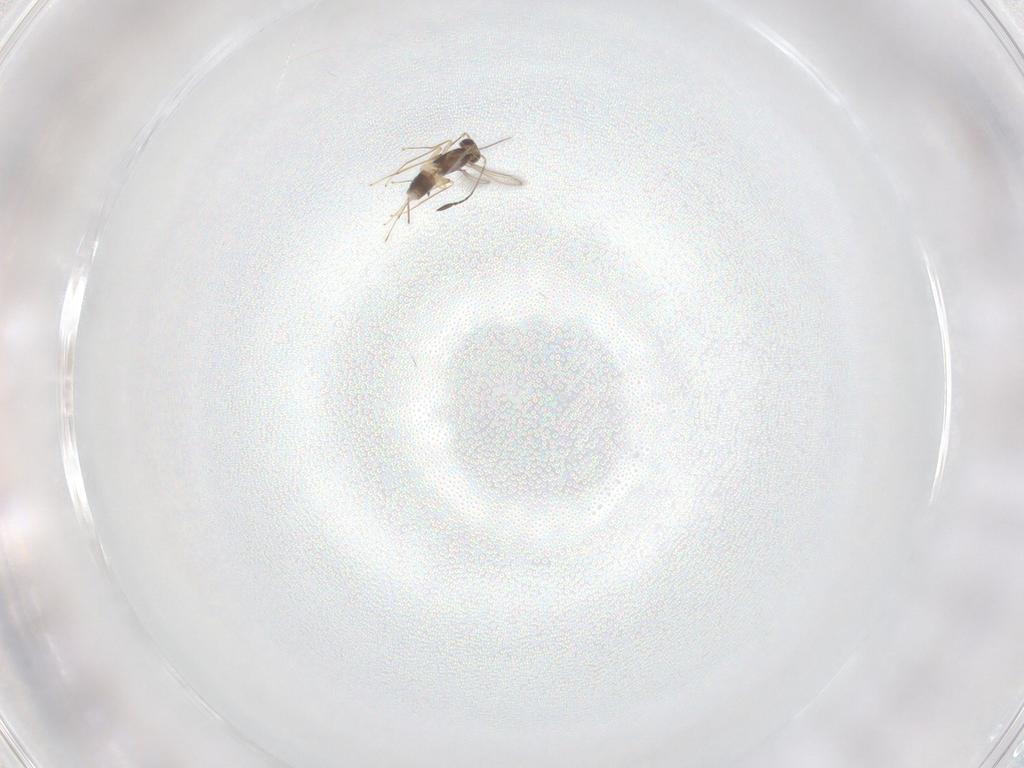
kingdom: Animalia
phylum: Arthropoda
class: Insecta
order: Hymenoptera
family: Mymaridae
